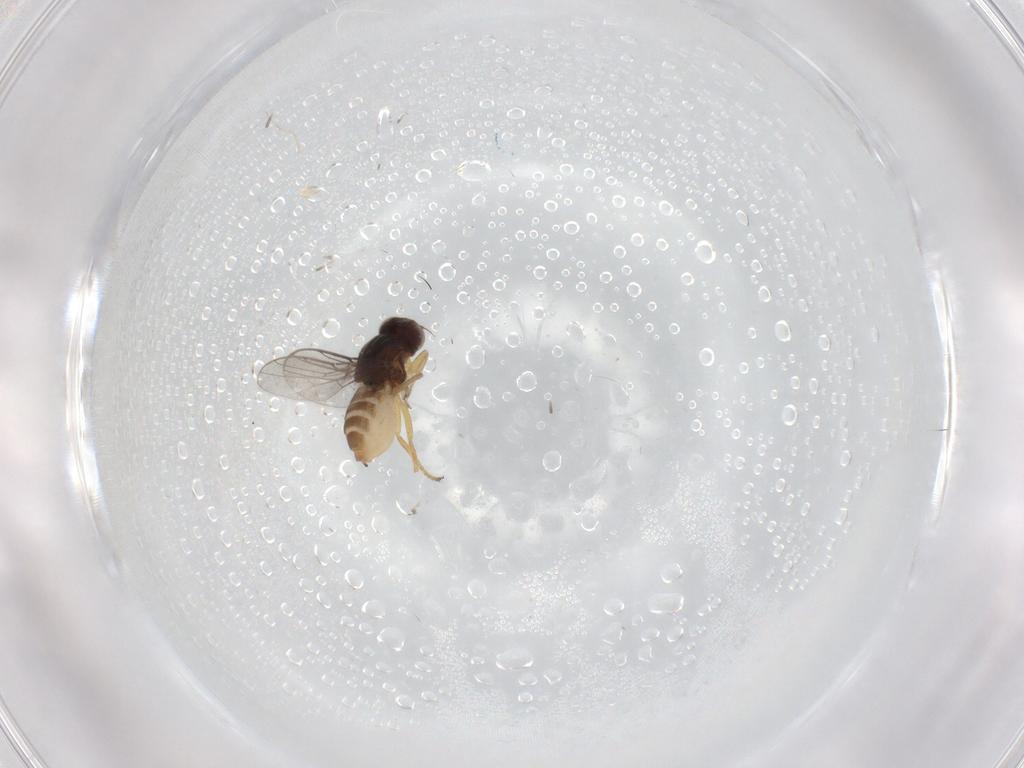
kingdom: Animalia
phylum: Arthropoda
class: Insecta
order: Diptera
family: Chloropidae
